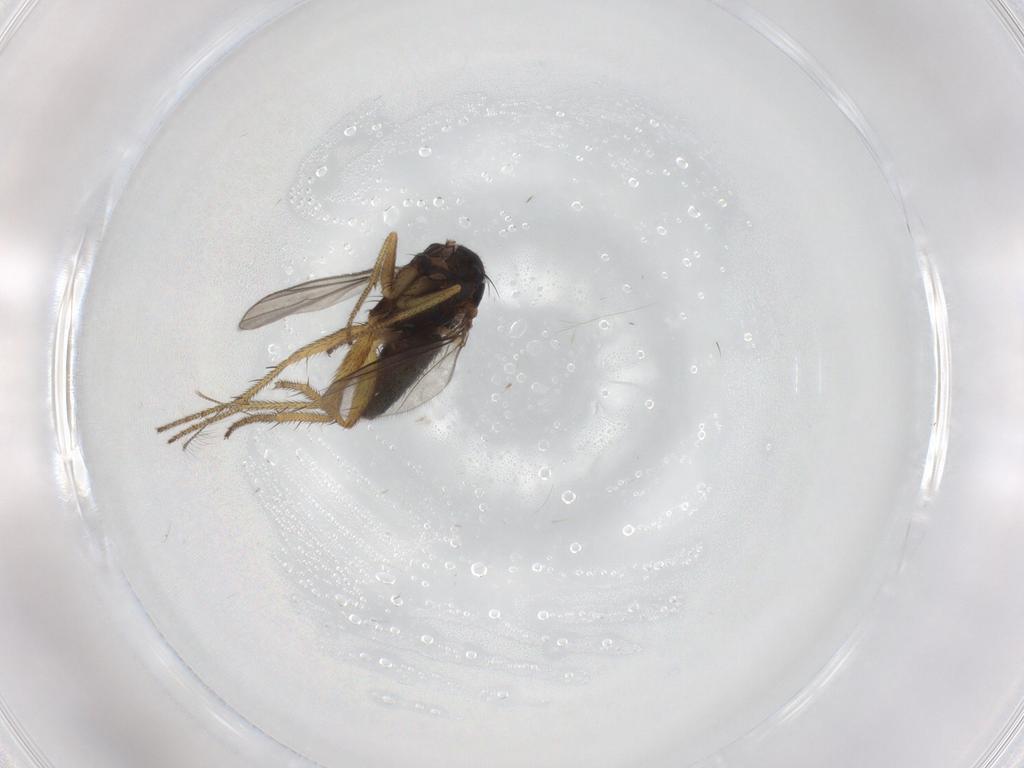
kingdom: Animalia
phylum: Arthropoda
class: Insecta
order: Diptera
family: Chironomidae
